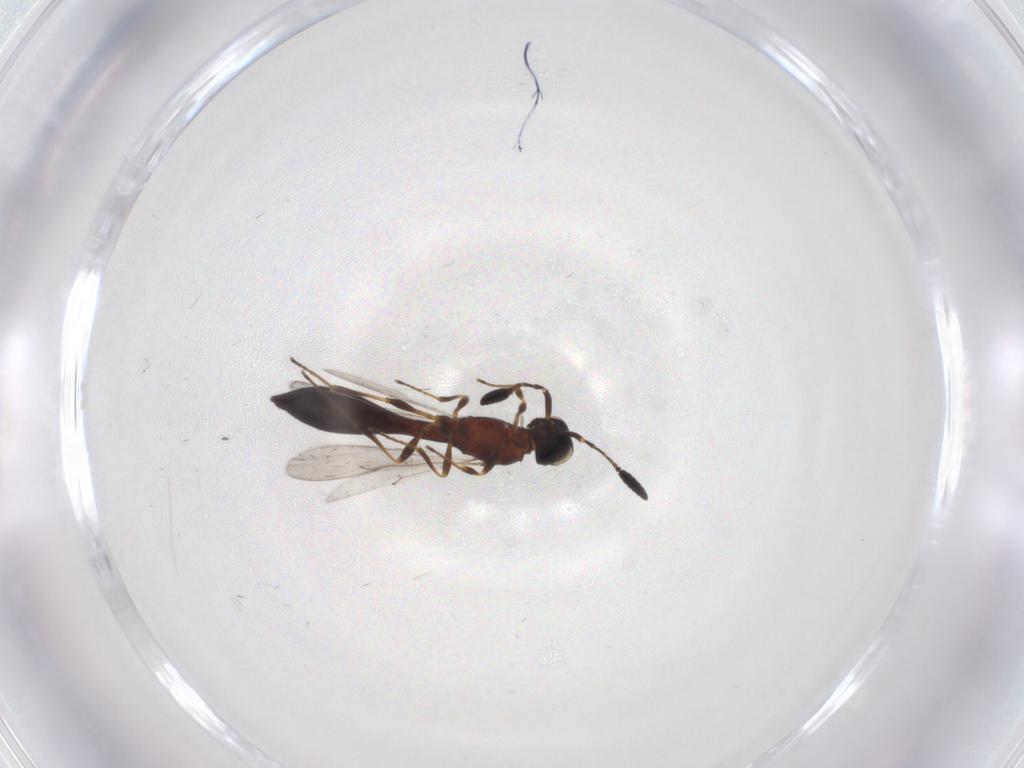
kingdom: Animalia
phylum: Arthropoda
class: Insecta
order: Hymenoptera
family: Scelionidae
